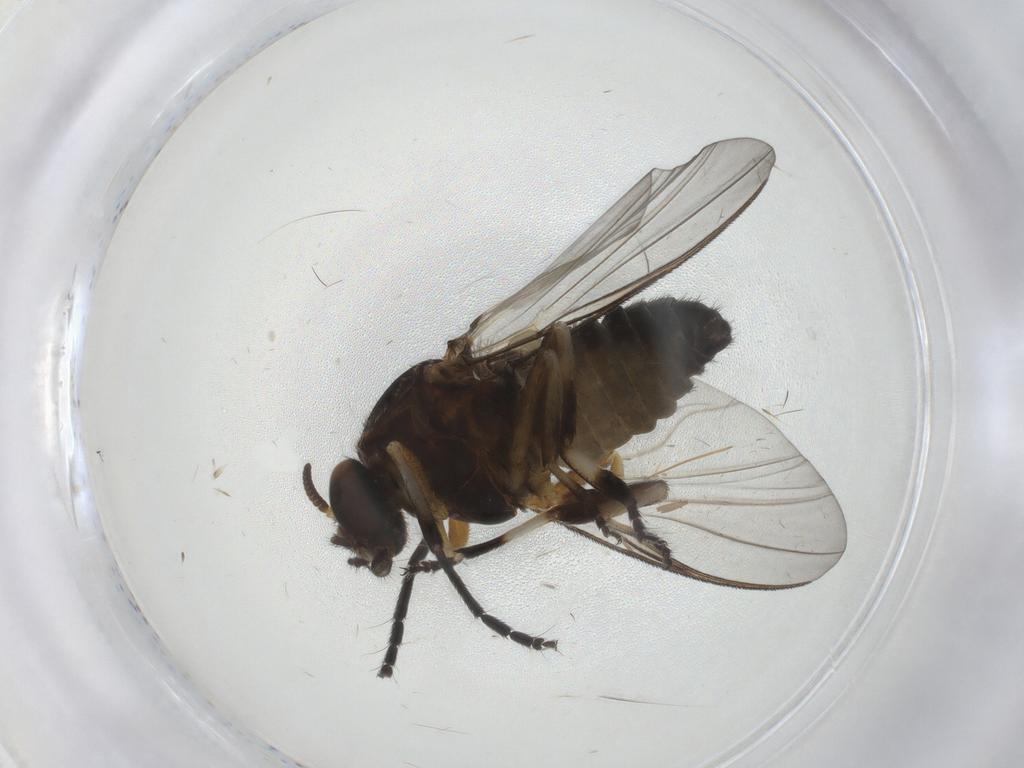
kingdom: Animalia
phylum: Arthropoda
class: Insecta
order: Diptera
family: Simuliidae
